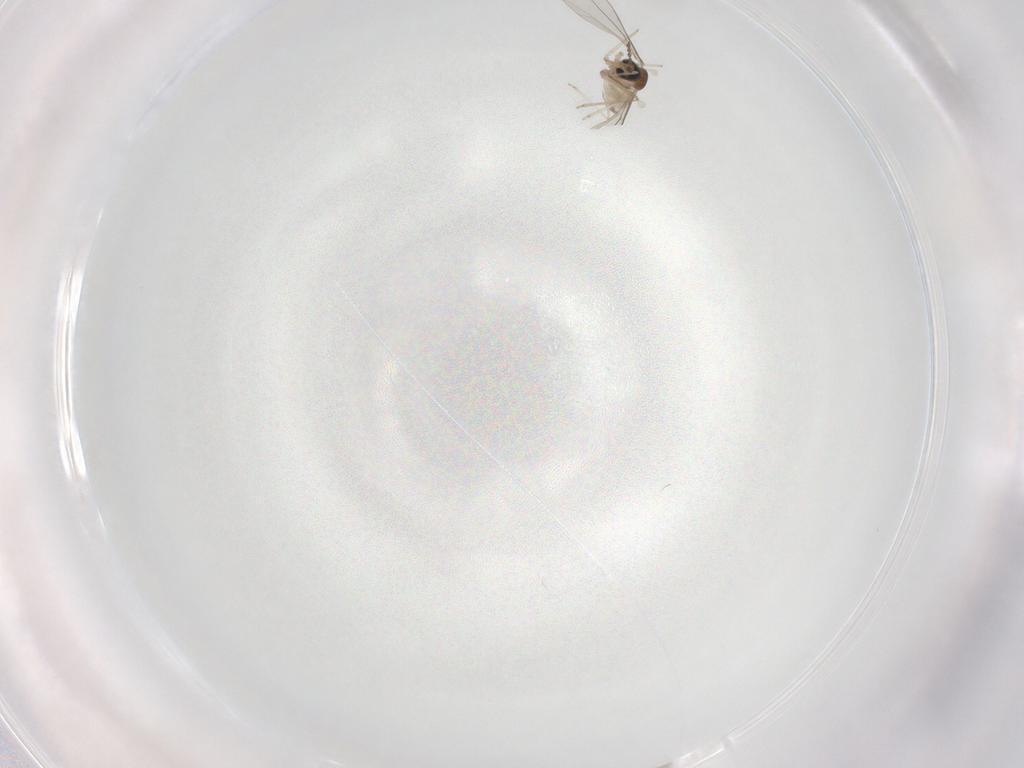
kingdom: Animalia
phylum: Arthropoda
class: Insecta
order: Diptera
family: Cecidomyiidae
